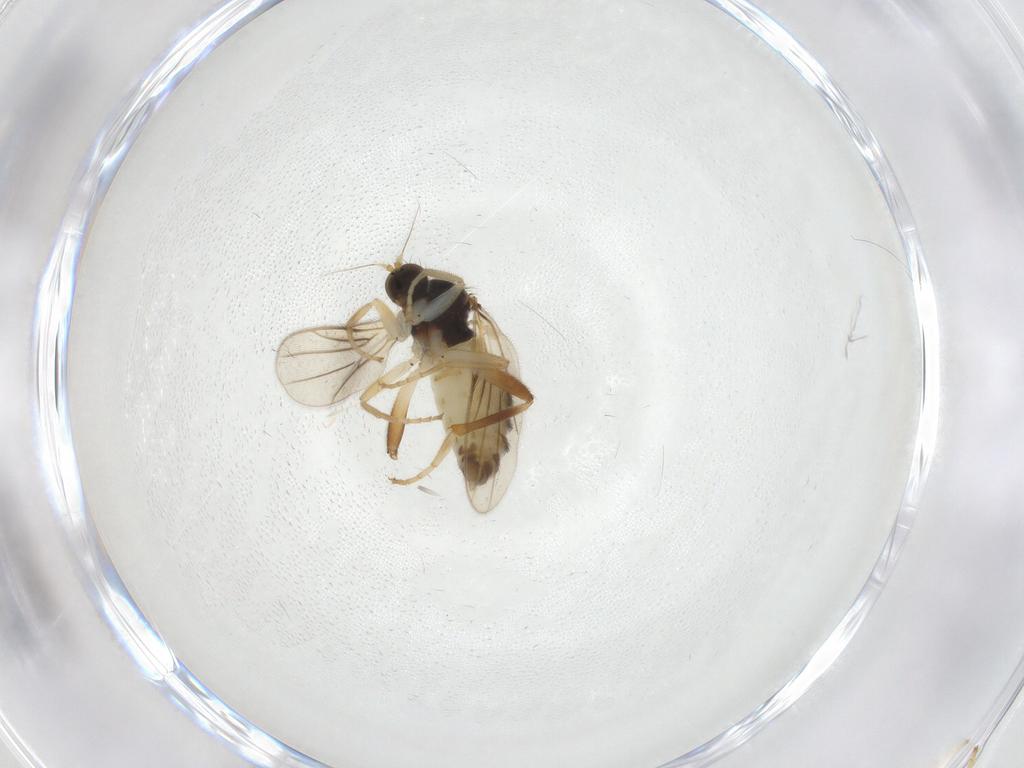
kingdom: Animalia
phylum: Arthropoda
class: Insecta
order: Diptera
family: Hybotidae
